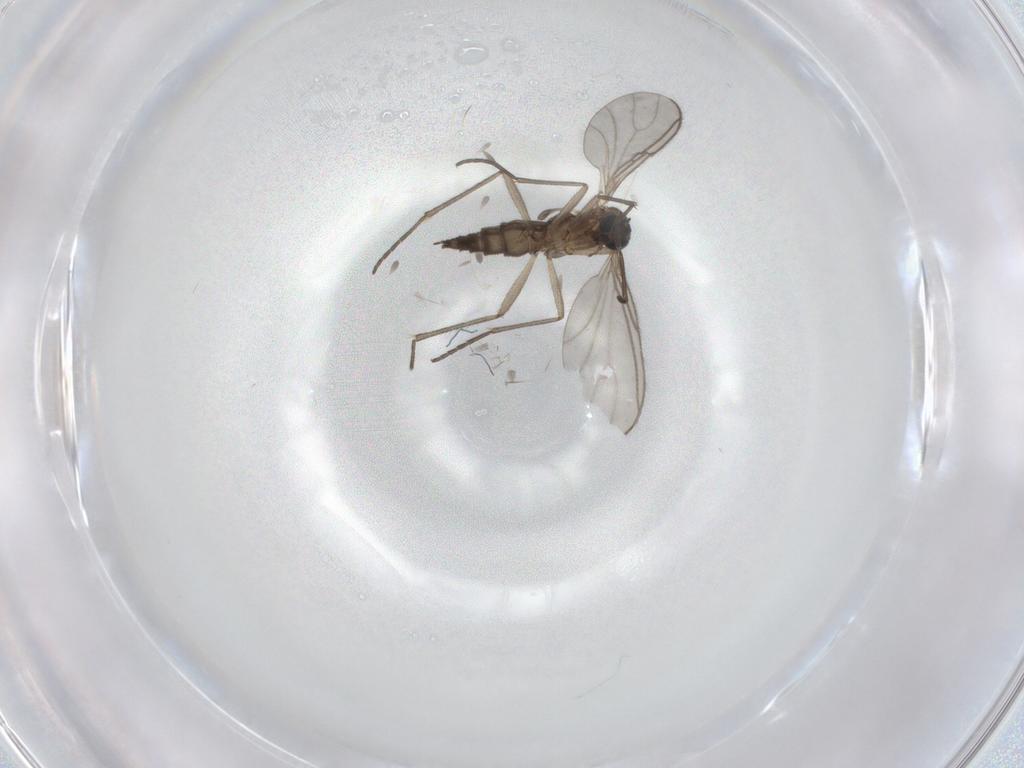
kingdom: Animalia
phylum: Arthropoda
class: Insecta
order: Diptera
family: Sciaridae
